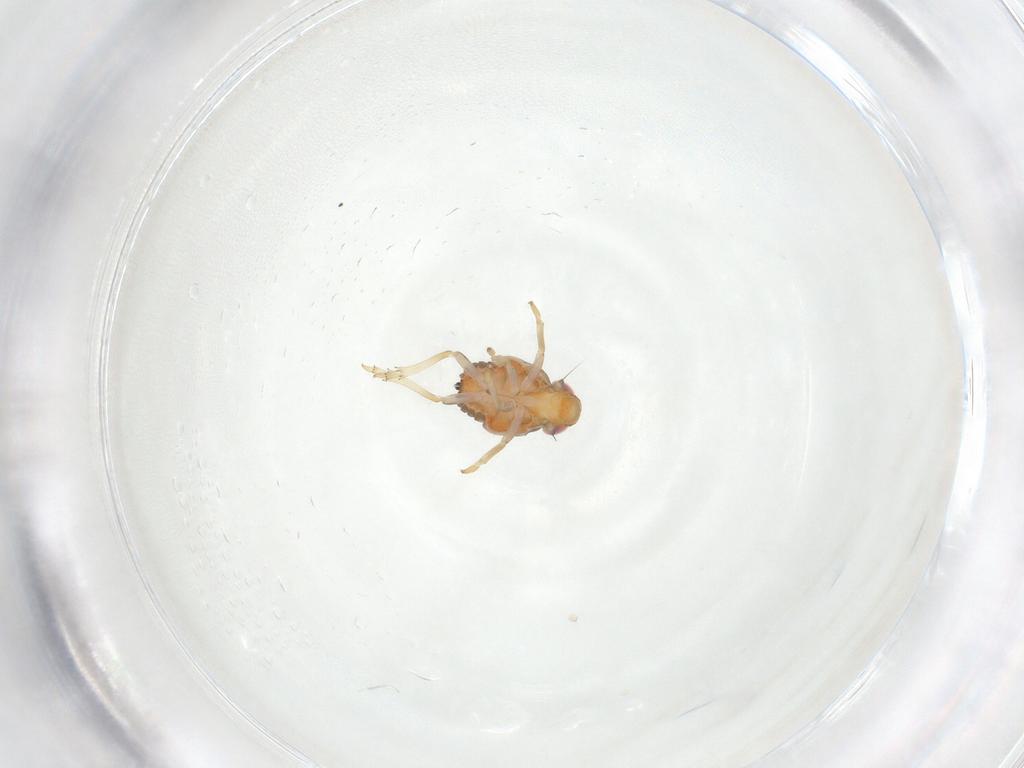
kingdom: Animalia
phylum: Arthropoda
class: Insecta
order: Hemiptera
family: Issidae
